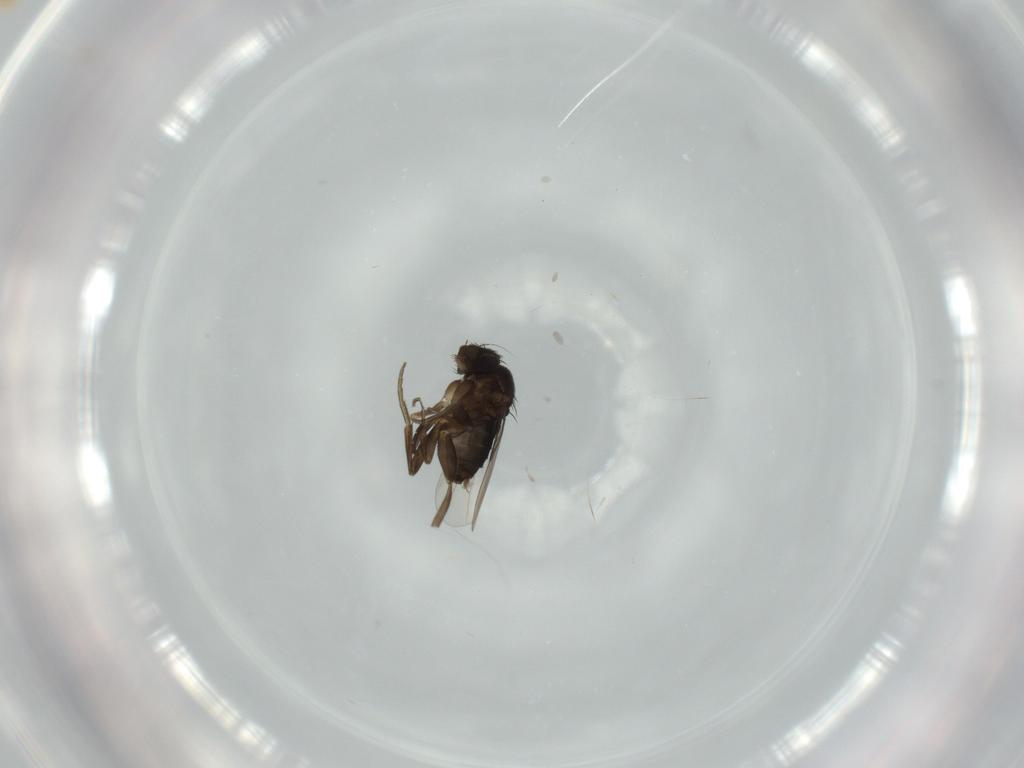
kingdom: Animalia
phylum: Arthropoda
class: Insecta
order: Diptera
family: Phoridae
